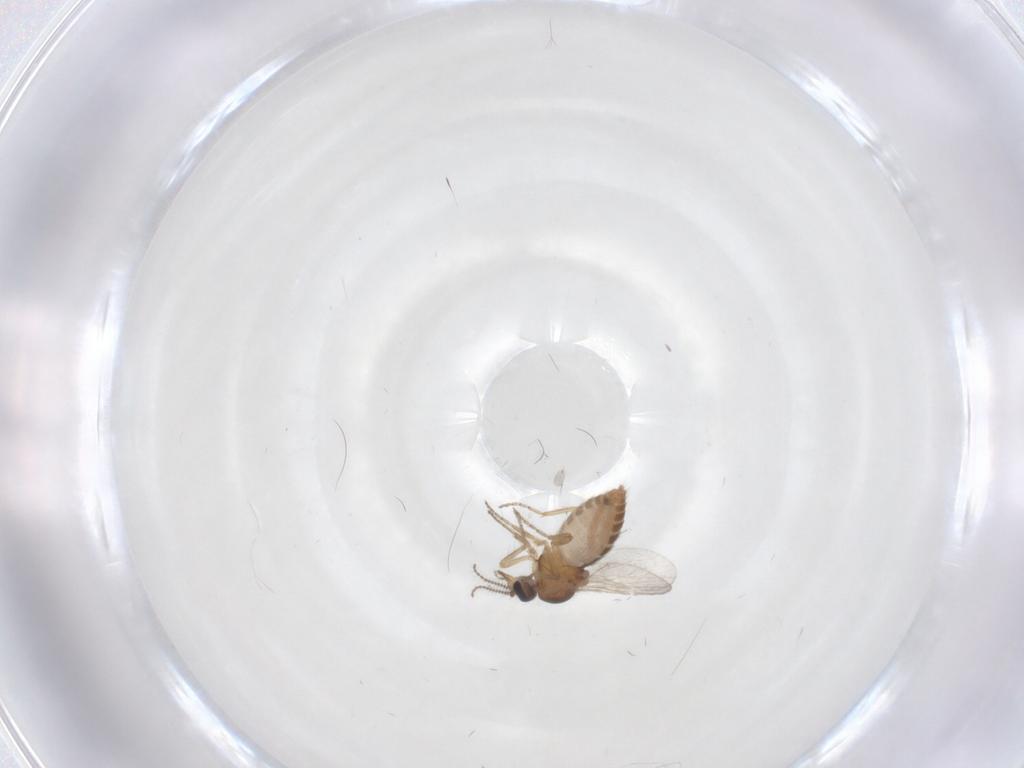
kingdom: Animalia
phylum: Arthropoda
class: Insecta
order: Diptera
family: Ceratopogonidae
